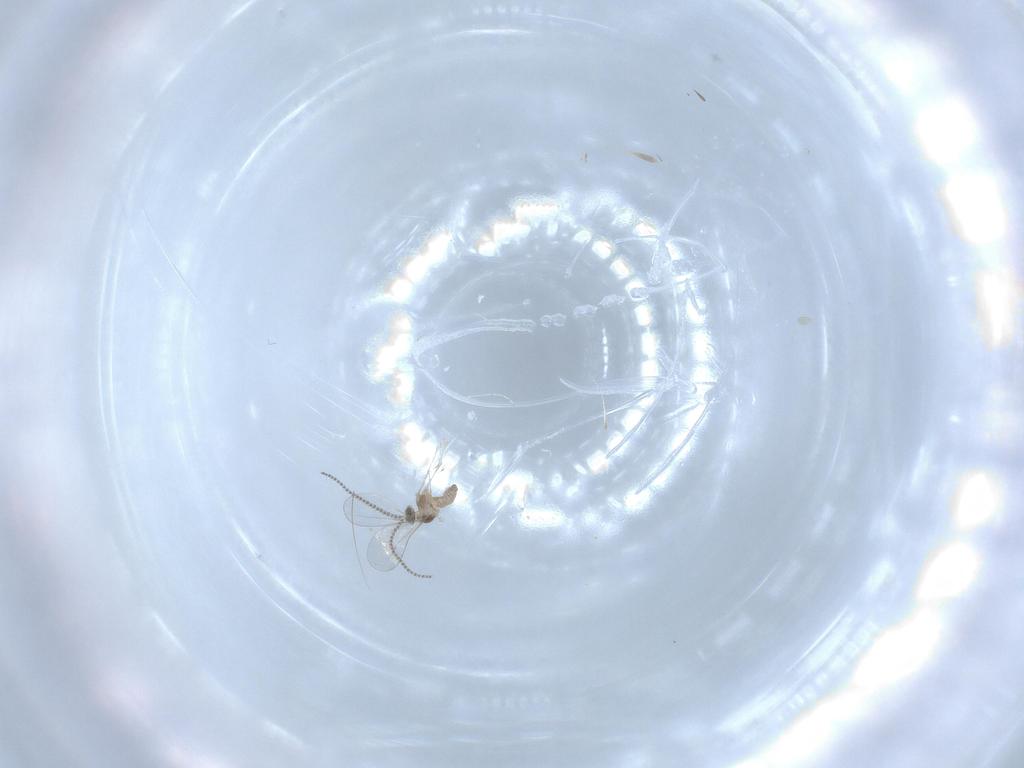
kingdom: Animalia
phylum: Arthropoda
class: Insecta
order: Diptera
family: Cecidomyiidae
